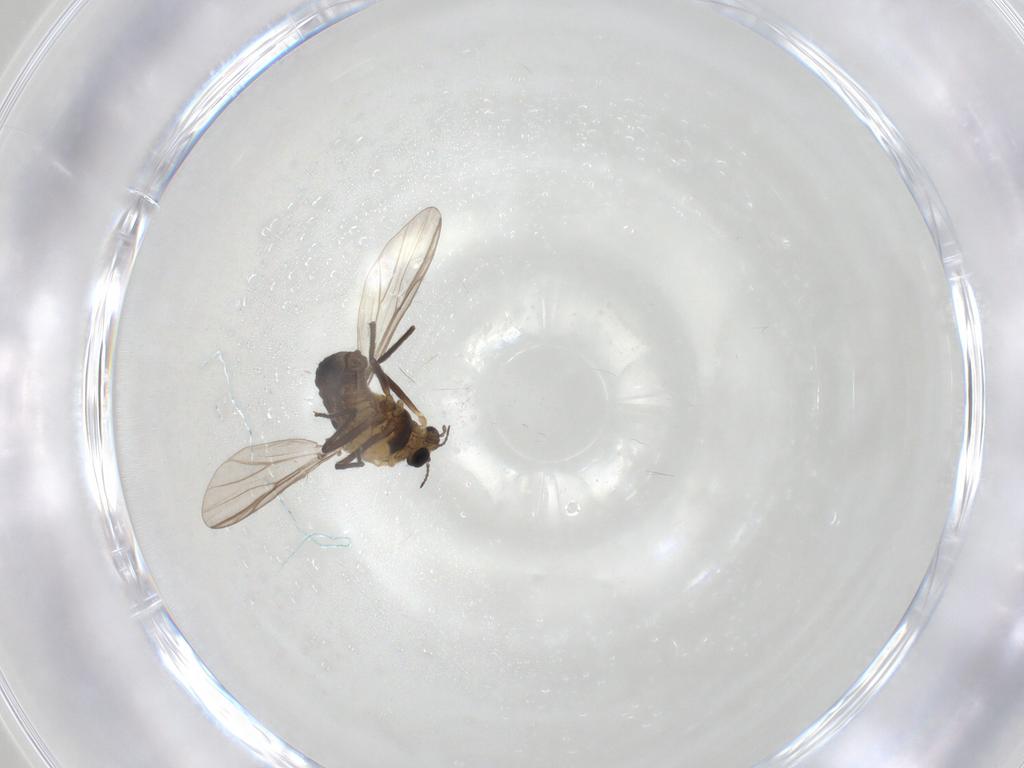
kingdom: Animalia
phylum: Arthropoda
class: Insecta
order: Diptera
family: Chironomidae
